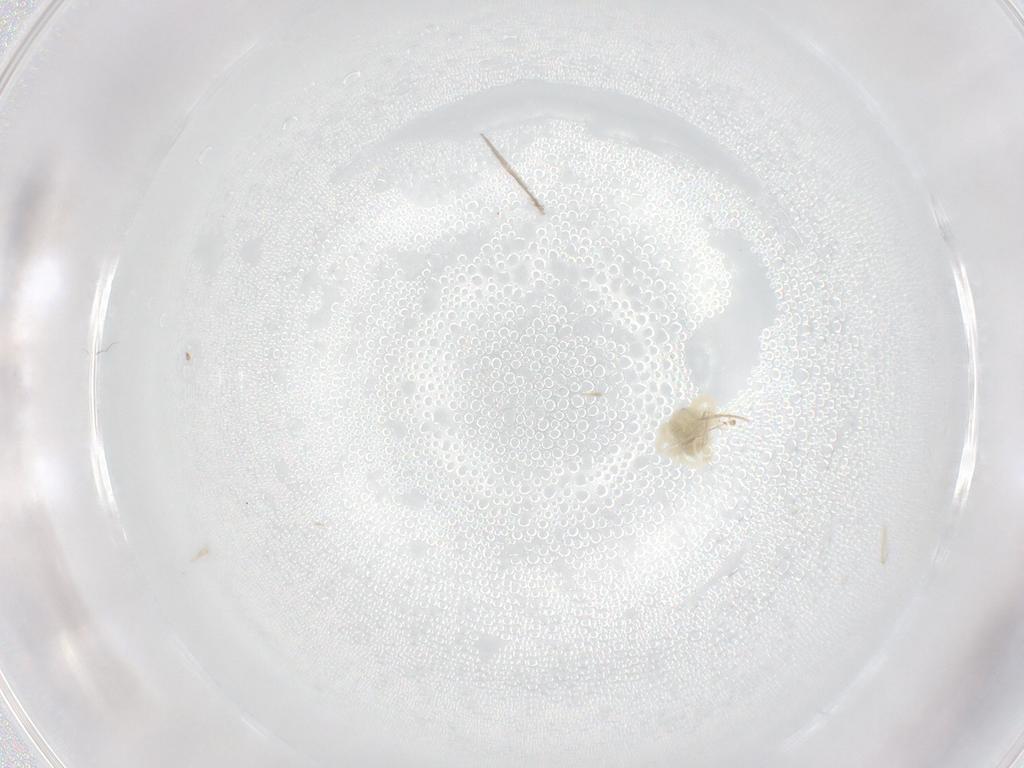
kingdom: Animalia
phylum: Arthropoda
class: Arachnida
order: Trombidiformes
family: Anystidae
